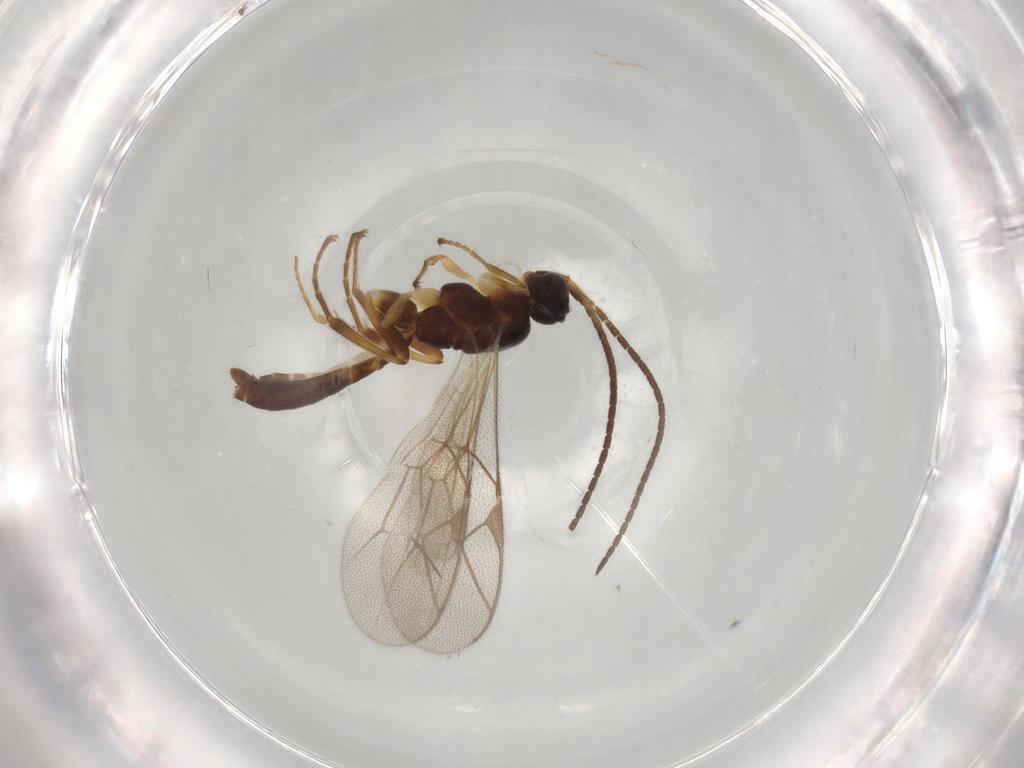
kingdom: Animalia
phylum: Arthropoda
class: Insecta
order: Hymenoptera
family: Ichneumonidae
